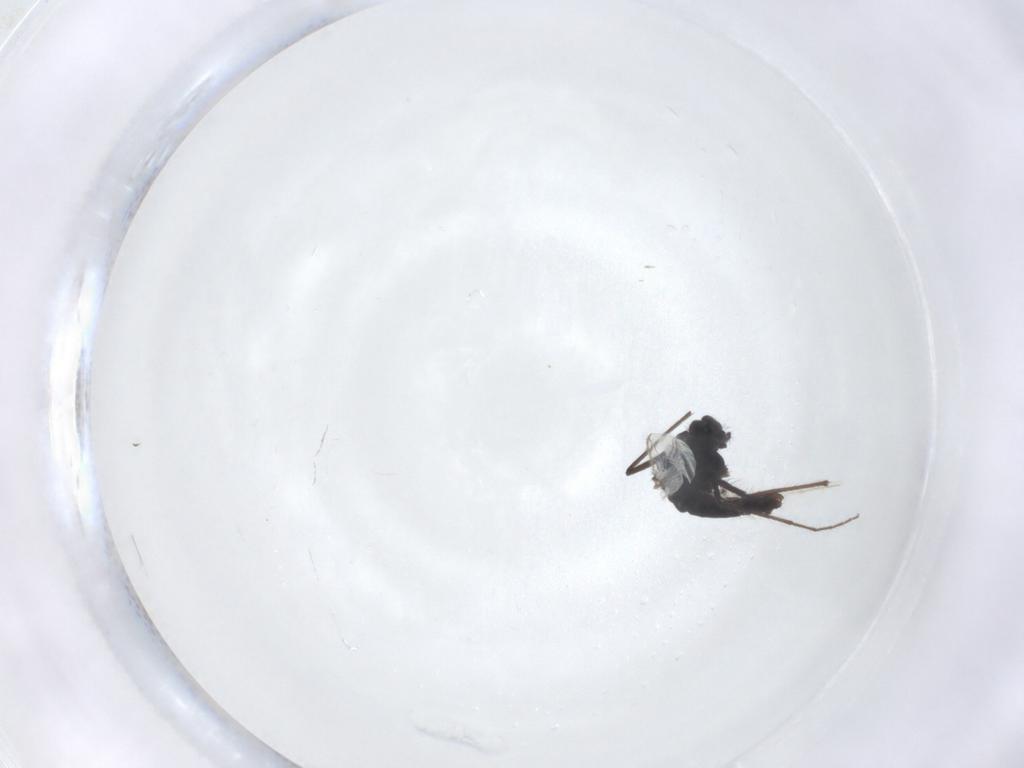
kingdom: Animalia
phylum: Arthropoda
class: Insecta
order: Diptera
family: Chironomidae
